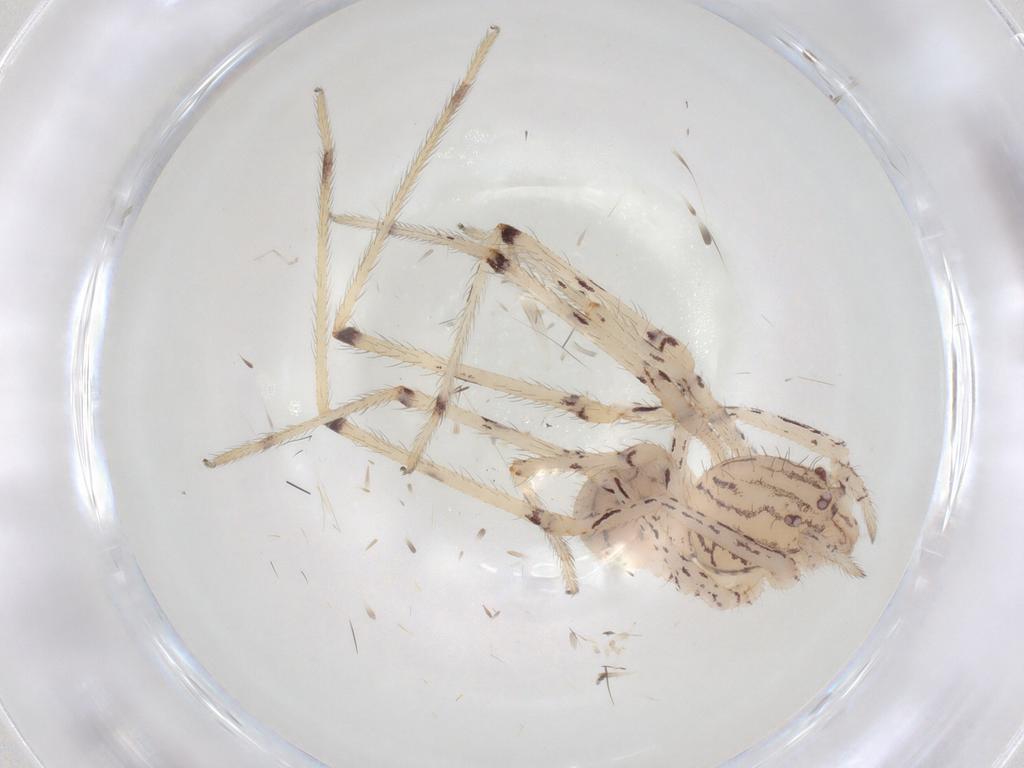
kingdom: Animalia
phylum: Arthropoda
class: Arachnida
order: Araneae
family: Scytodidae
